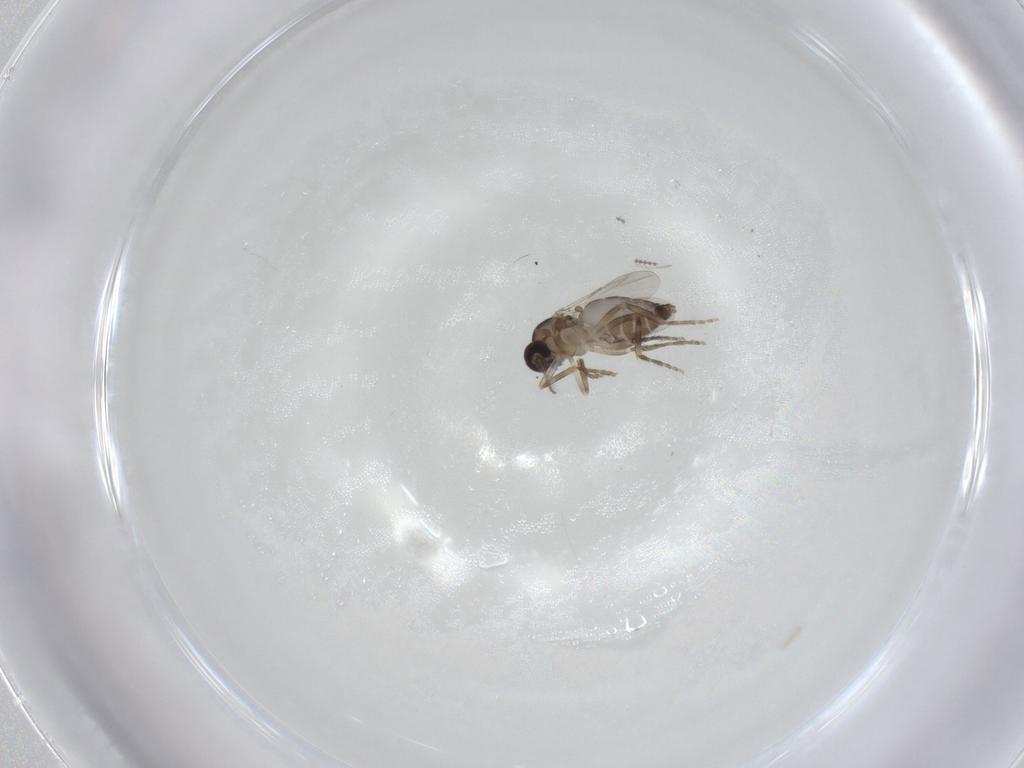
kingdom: Animalia
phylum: Arthropoda
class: Insecta
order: Diptera
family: Ceratopogonidae
